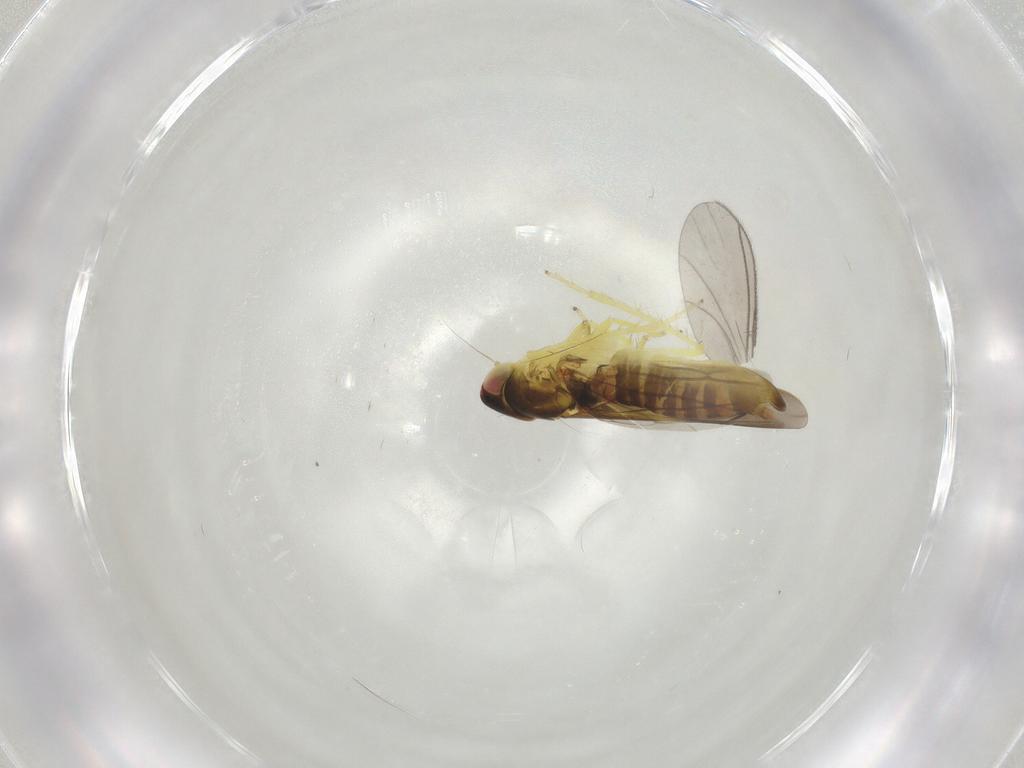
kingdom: Animalia
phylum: Arthropoda
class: Insecta
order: Hemiptera
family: Cicadellidae
